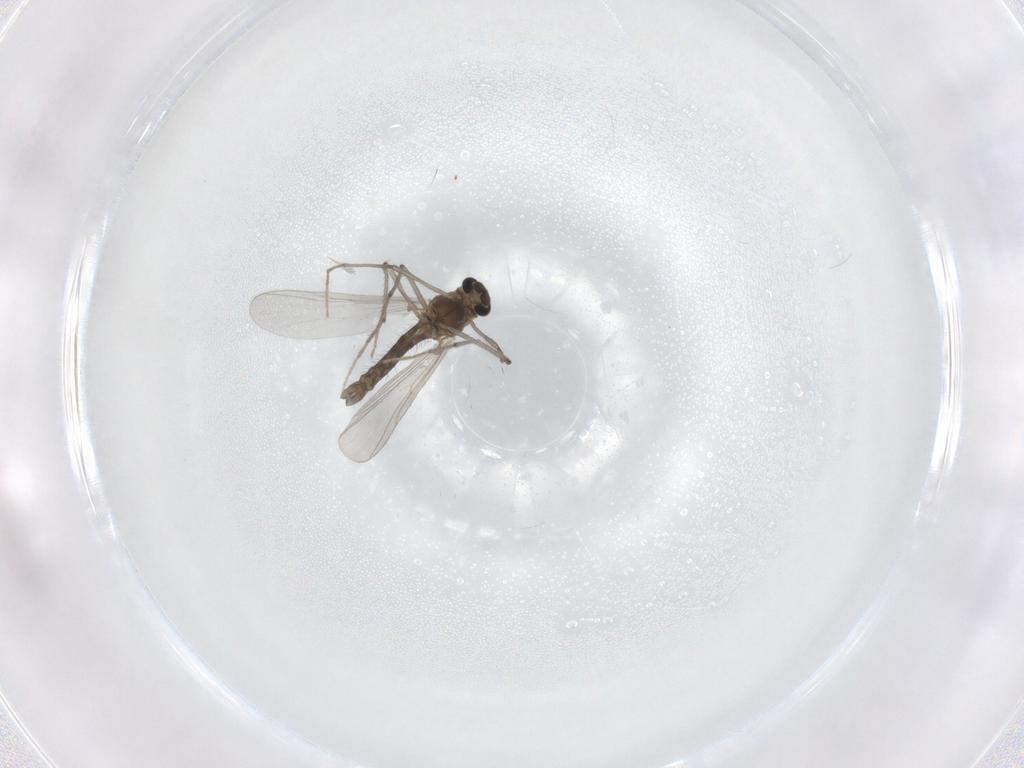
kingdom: Animalia
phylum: Arthropoda
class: Insecta
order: Diptera
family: Chironomidae
